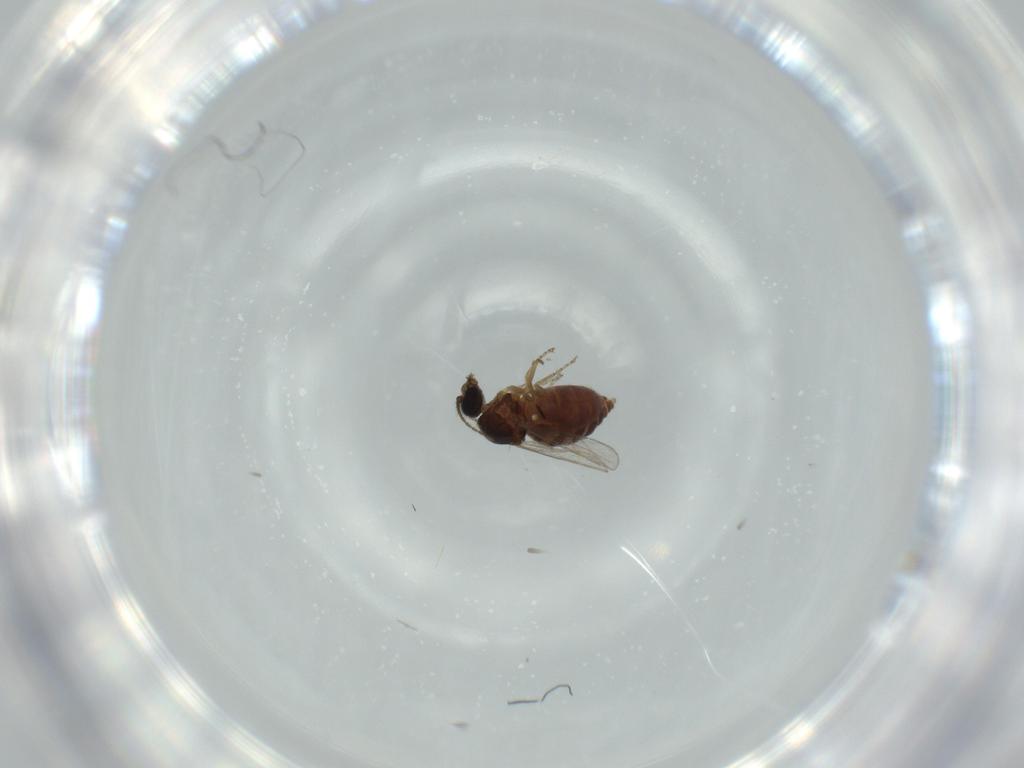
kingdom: Animalia
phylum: Arthropoda
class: Insecta
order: Diptera
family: Ceratopogonidae
